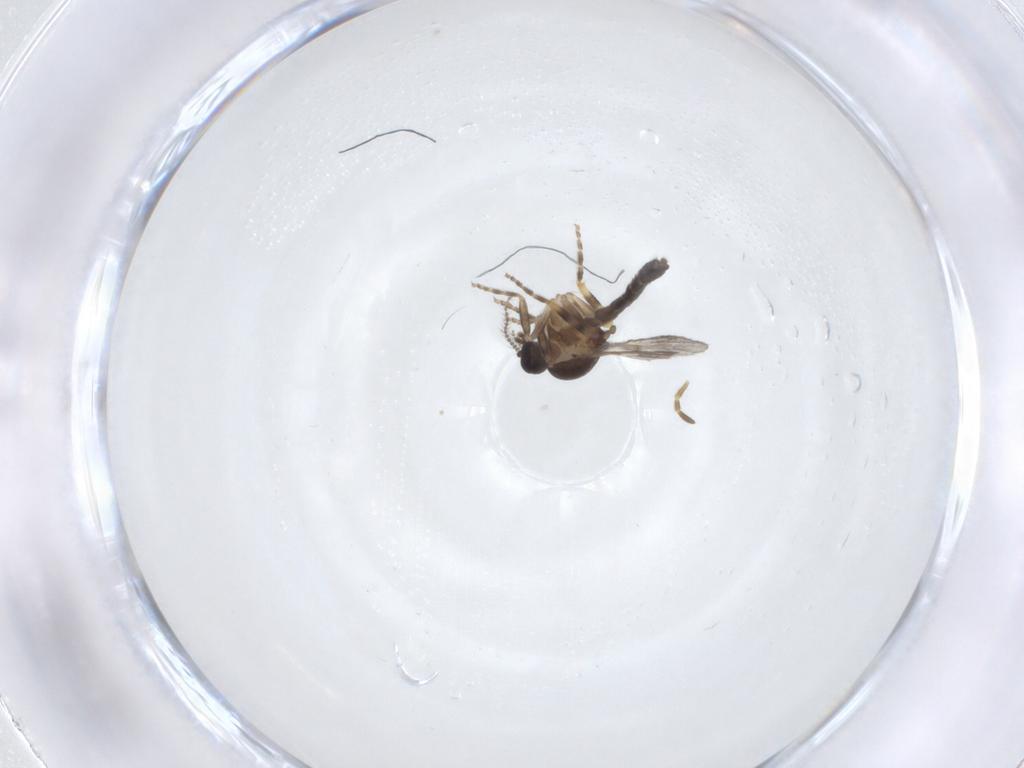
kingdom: Animalia
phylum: Arthropoda
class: Insecta
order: Diptera
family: Ceratopogonidae
